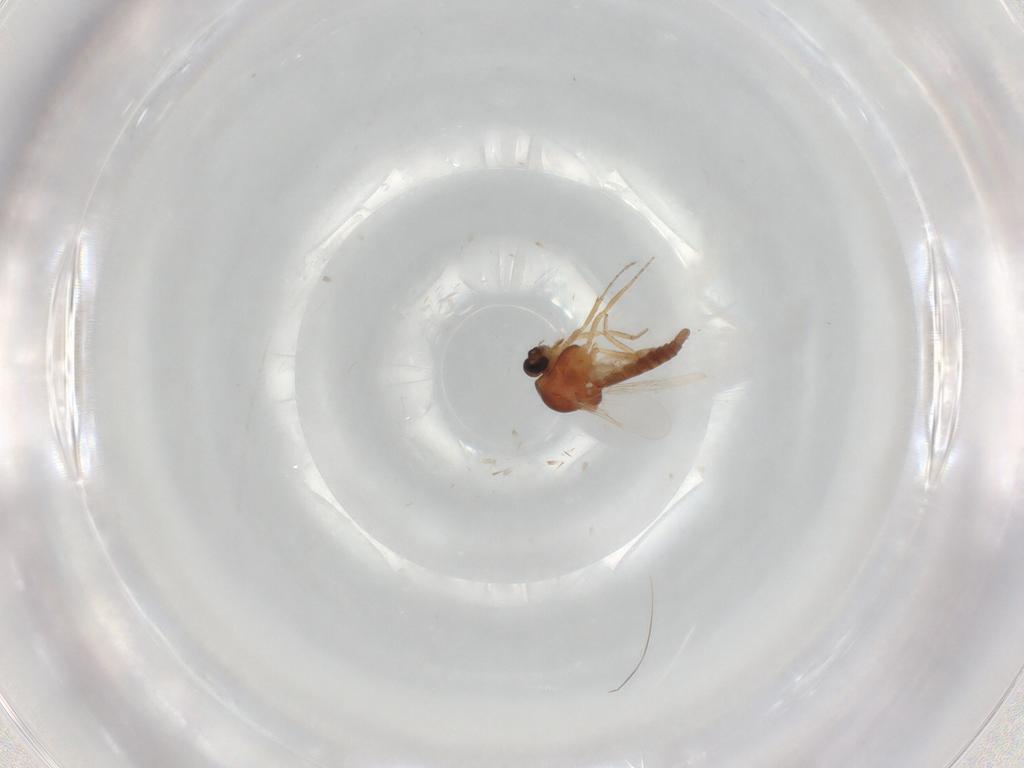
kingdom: Animalia
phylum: Arthropoda
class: Insecta
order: Diptera
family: Ceratopogonidae
